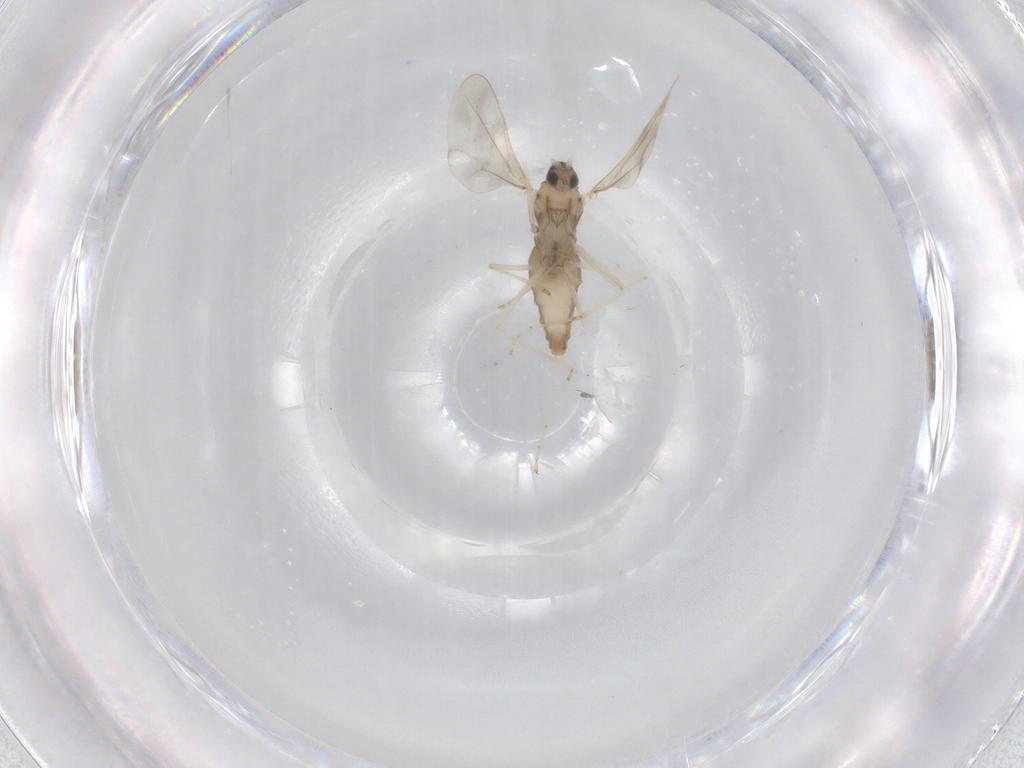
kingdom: Animalia
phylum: Arthropoda
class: Insecta
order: Diptera
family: Cecidomyiidae
